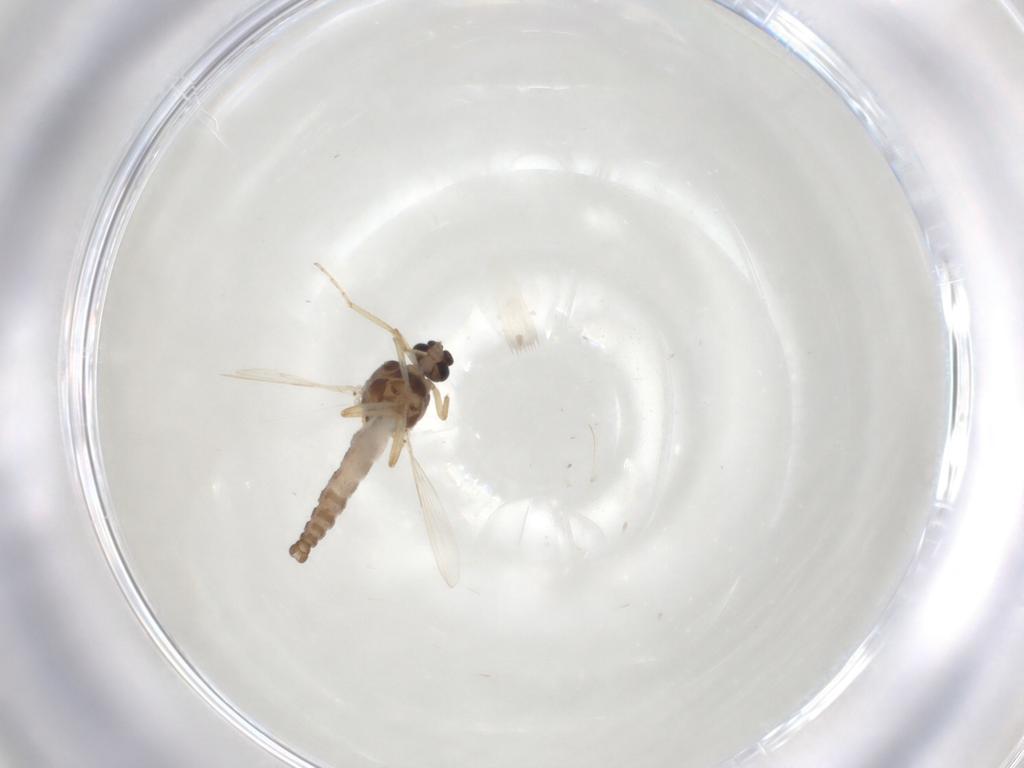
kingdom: Animalia
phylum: Arthropoda
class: Insecta
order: Diptera
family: Ceratopogonidae
